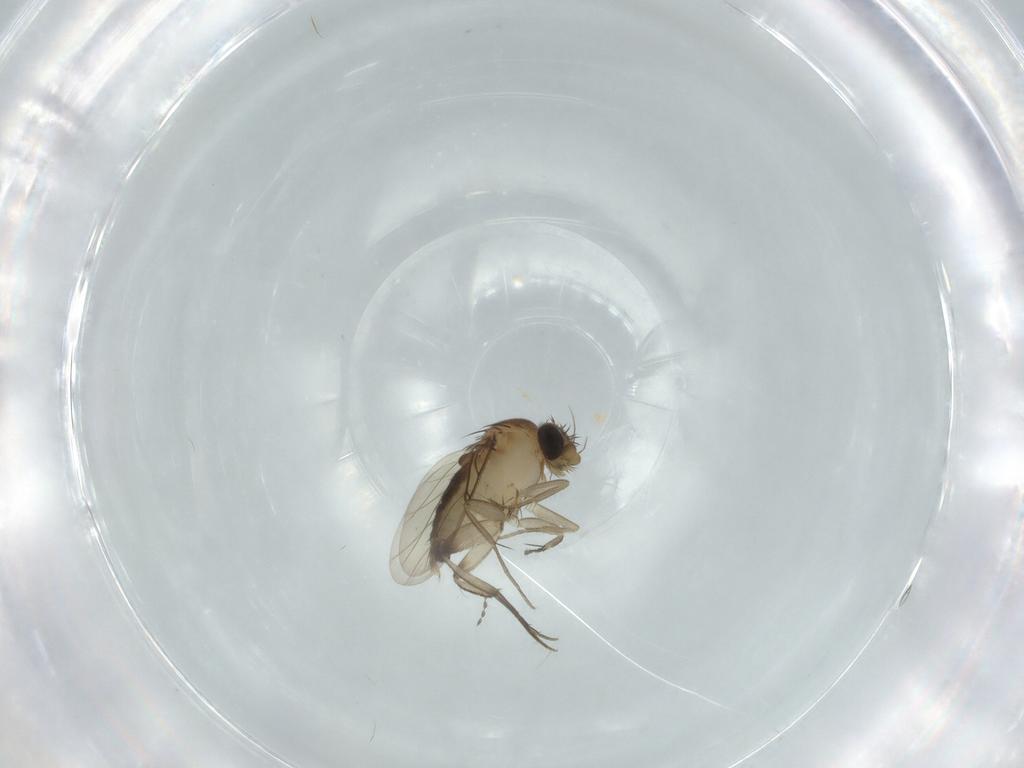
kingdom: Animalia
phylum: Arthropoda
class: Insecta
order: Diptera
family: Phoridae
